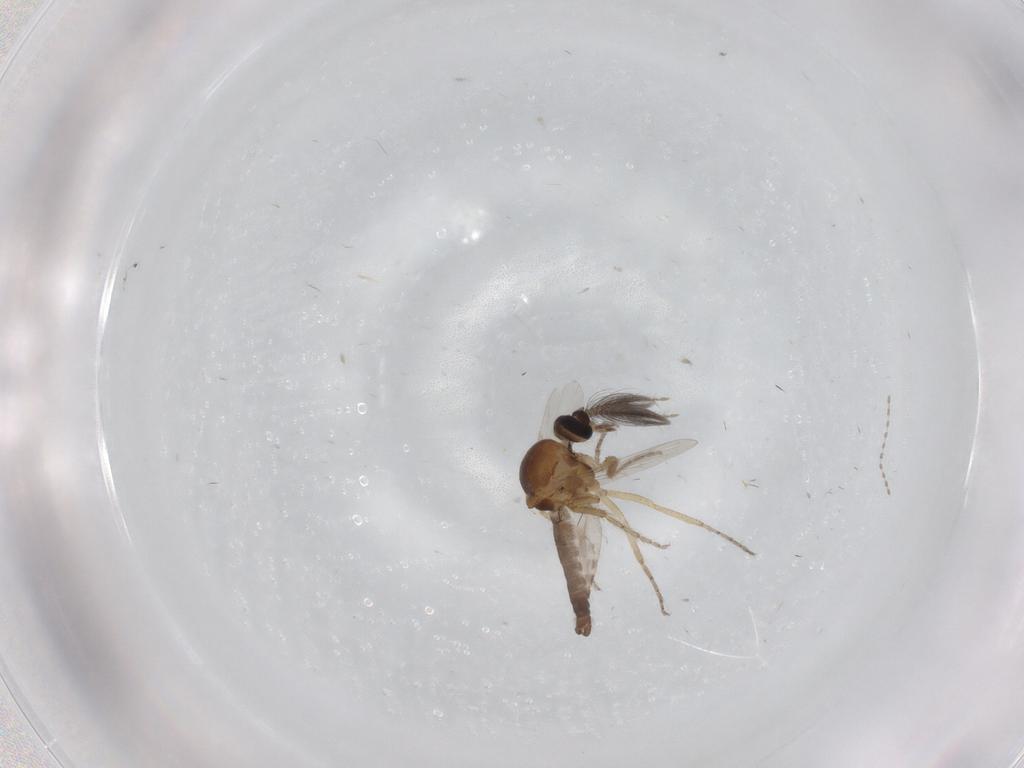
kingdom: Animalia
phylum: Arthropoda
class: Insecta
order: Diptera
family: Ceratopogonidae
